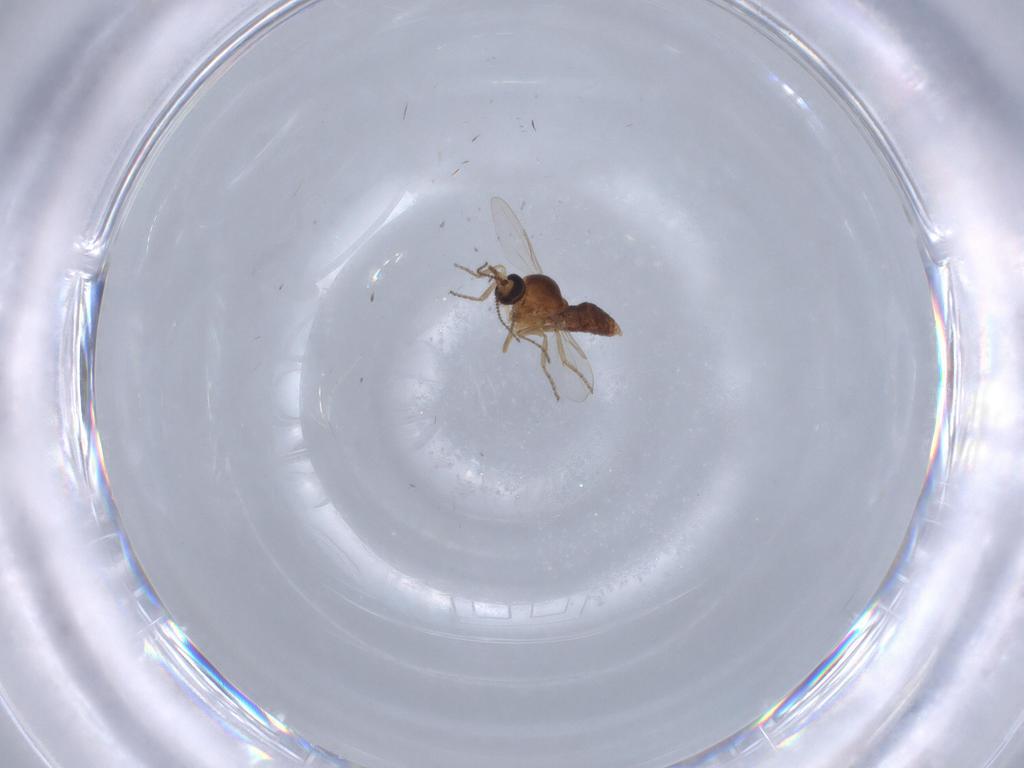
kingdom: Animalia
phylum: Arthropoda
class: Insecta
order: Diptera
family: Ceratopogonidae
